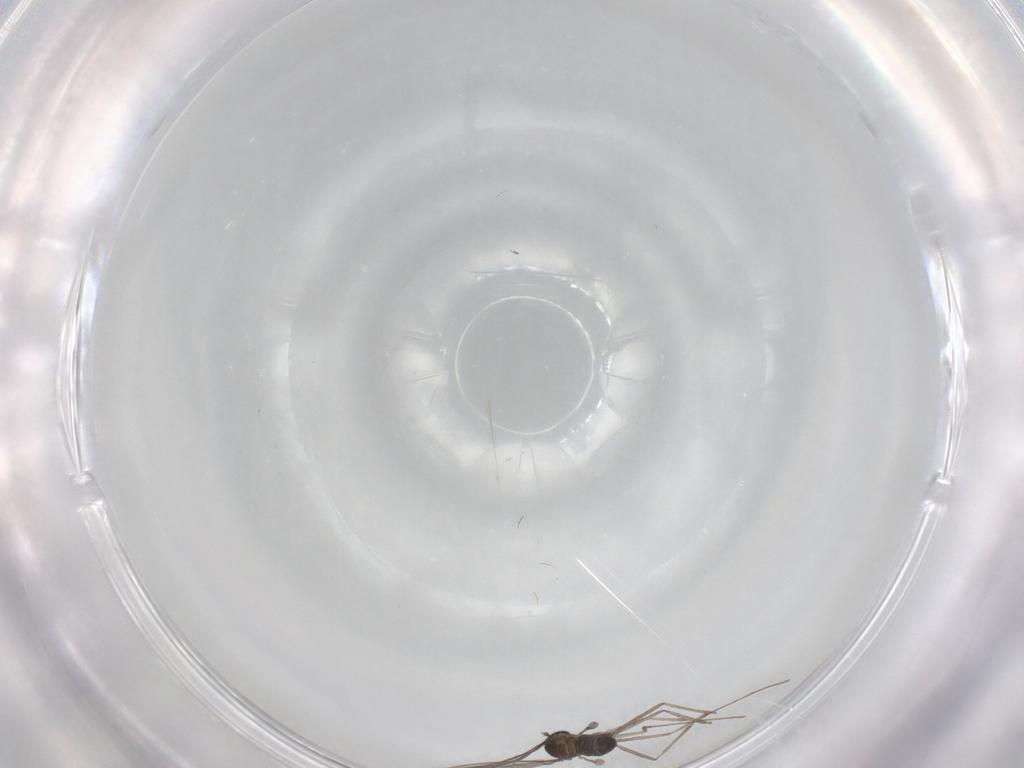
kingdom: Animalia
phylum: Arthropoda
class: Insecta
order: Diptera
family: Cecidomyiidae
